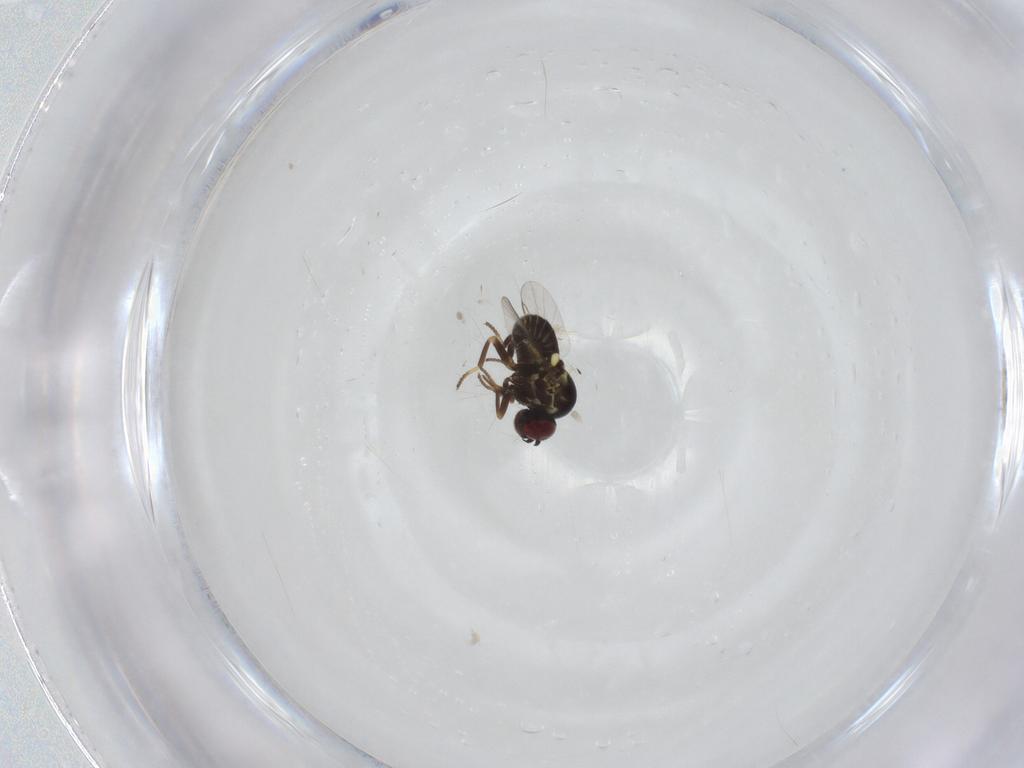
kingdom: Animalia
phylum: Arthropoda
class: Insecta
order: Diptera
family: Mythicomyiidae
